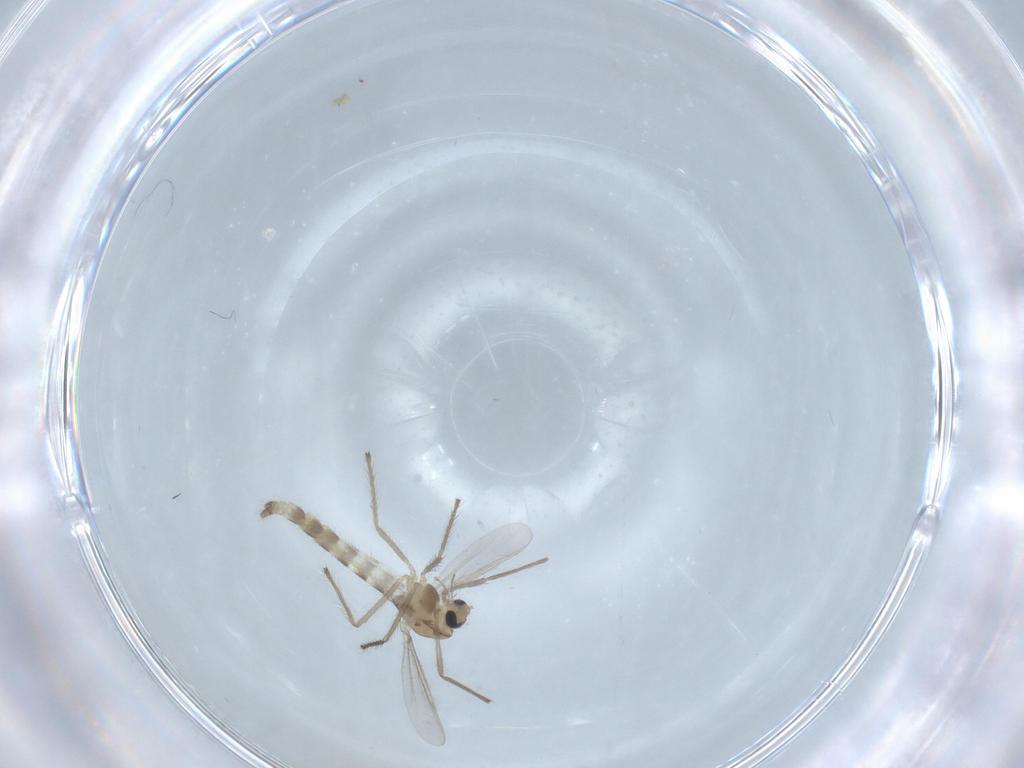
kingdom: Animalia
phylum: Arthropoda
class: Insecta
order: Diptera
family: Chironomidae
